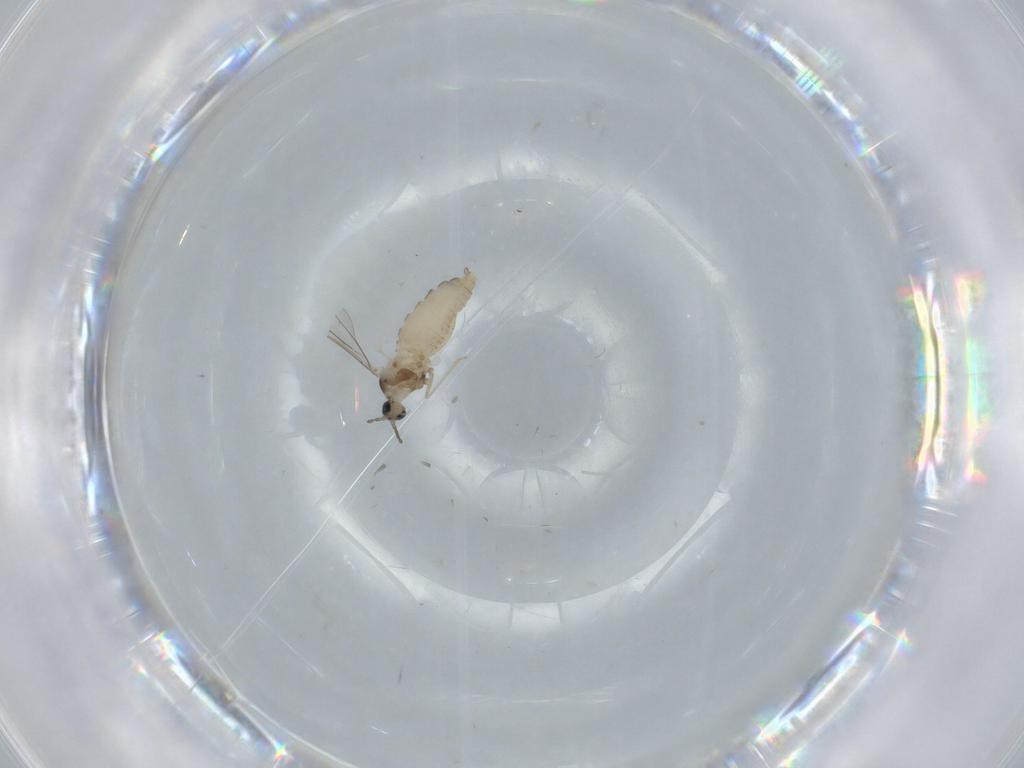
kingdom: Animalia
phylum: Arthropoda
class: Insecta
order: Diptera
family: Cecidomyiidae
